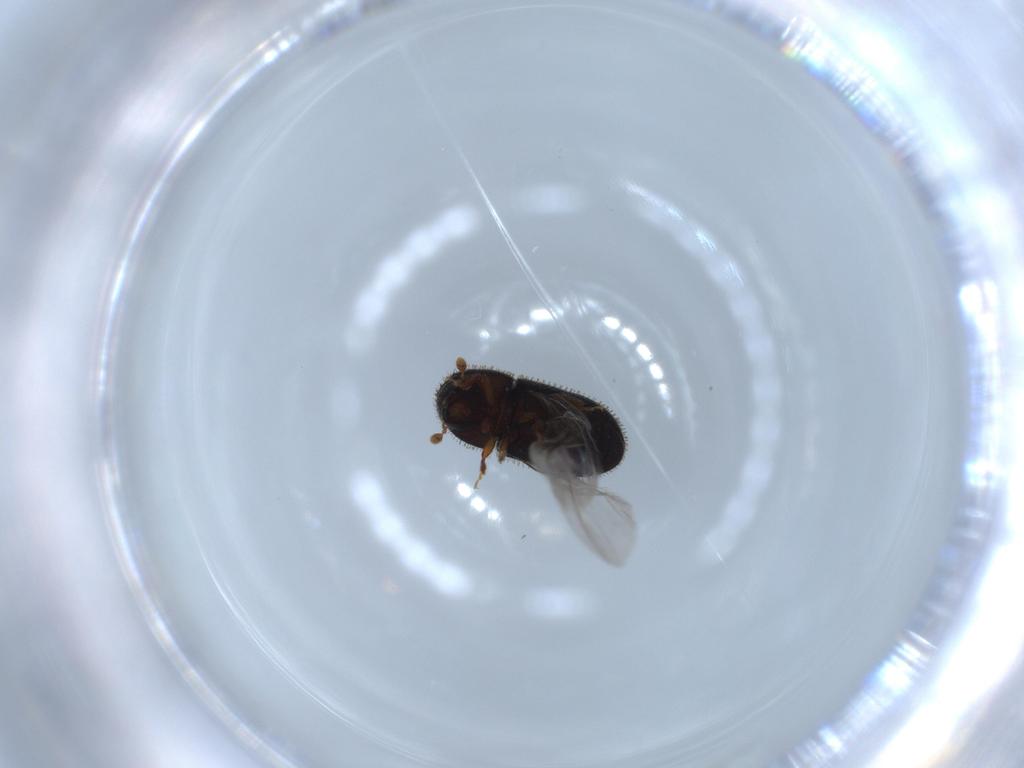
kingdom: Animalia
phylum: Arthropoda
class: Insecta
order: Coleoptera
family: Curculionidae
